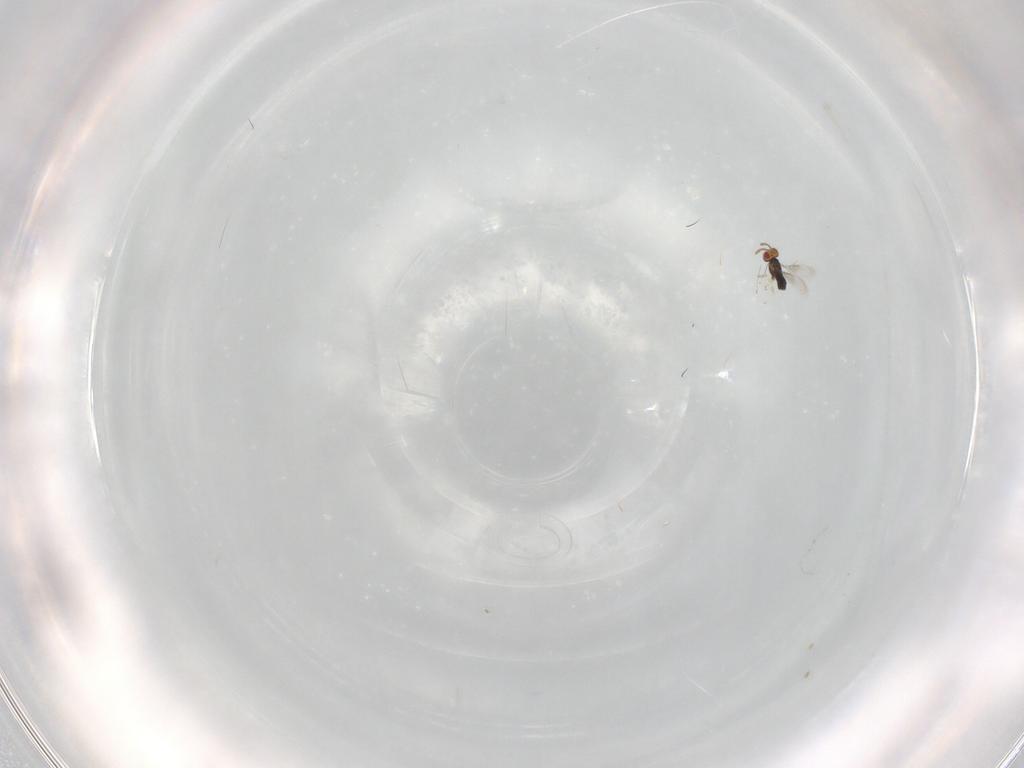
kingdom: Animalia
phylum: Arthropoda
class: Insecta
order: Hymenoptera
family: Azotidae
